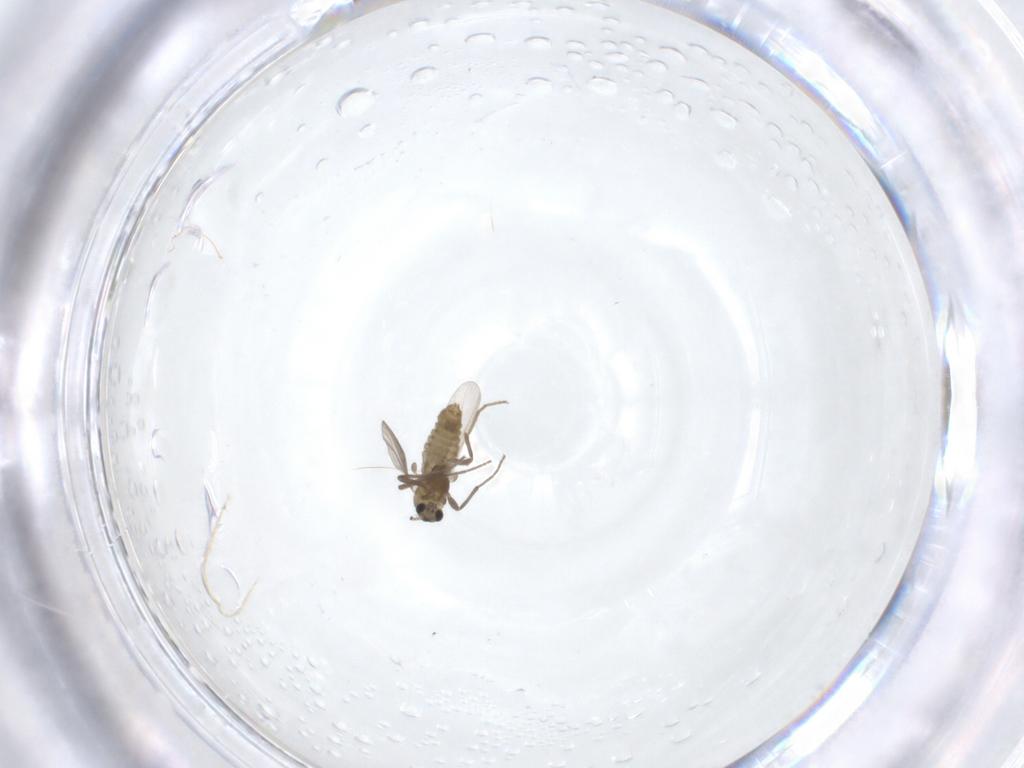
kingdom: Animalia
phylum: Arthropoda
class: Insecta
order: Diptera
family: Chironomidae
